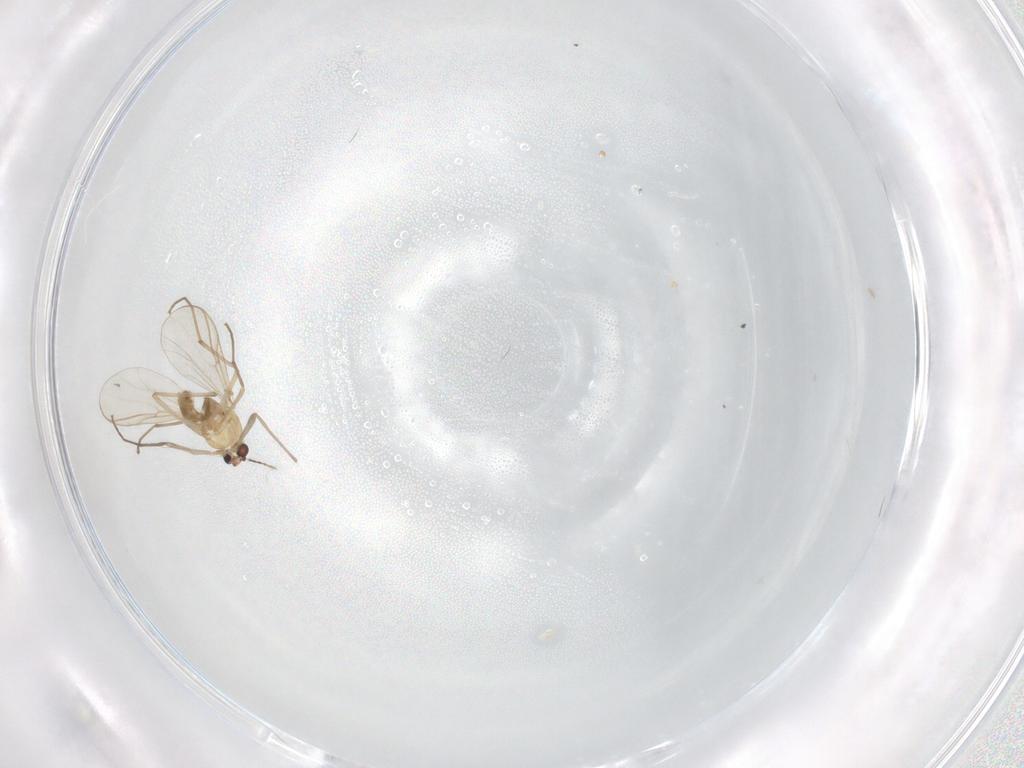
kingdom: Animalia
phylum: Arthropoda
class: Insecta
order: Diptera
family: Chironomidae
